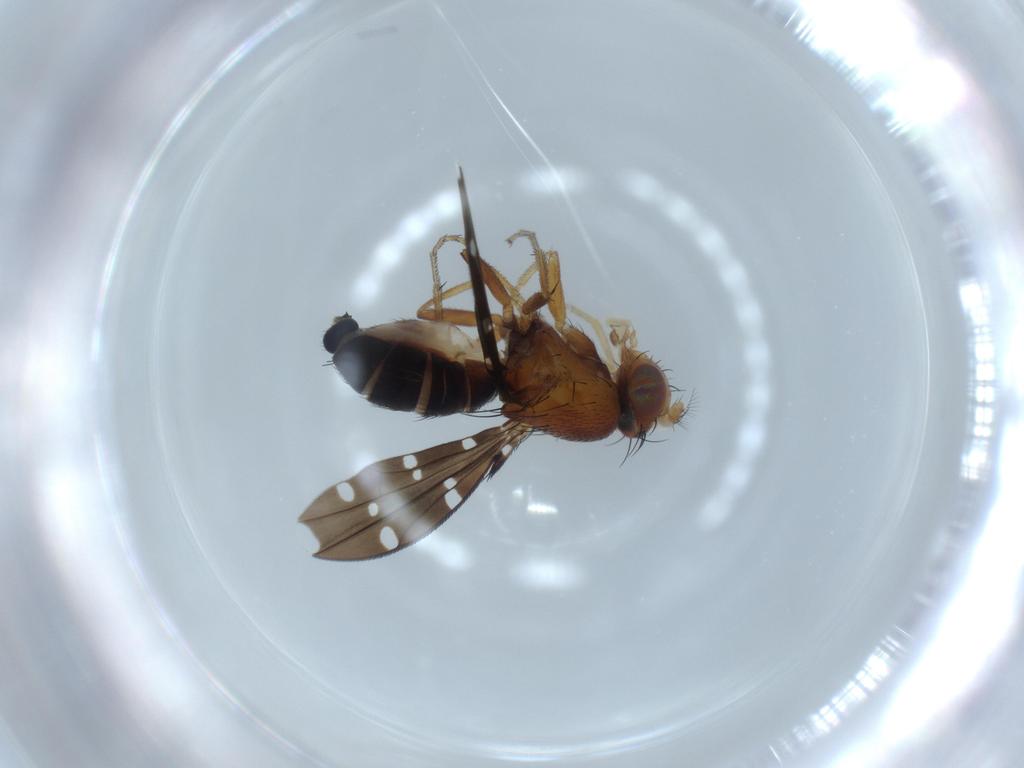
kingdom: Animalia
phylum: Arthropoda
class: Insecta
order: Diptera
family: Ephydridae
